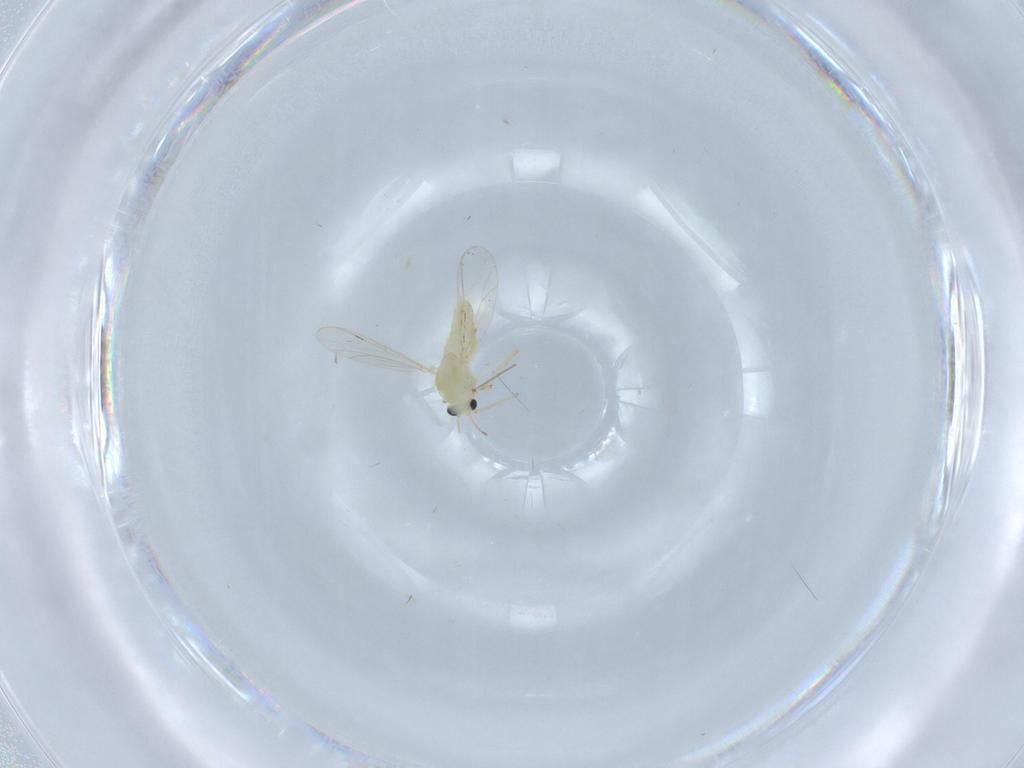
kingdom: Animalia
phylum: Arthropoda
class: Insecta
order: Diptera
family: Chironomidae
